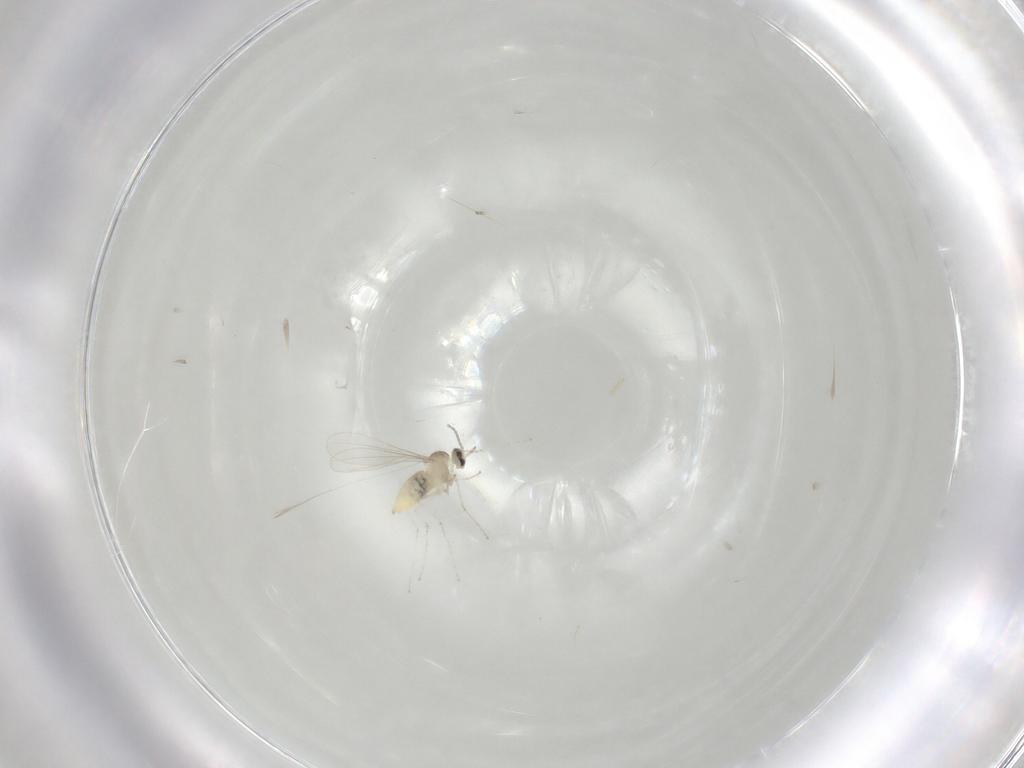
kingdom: Animalia
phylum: Arthropoda
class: Insecta
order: Diptera
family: Cecidomyiidae
